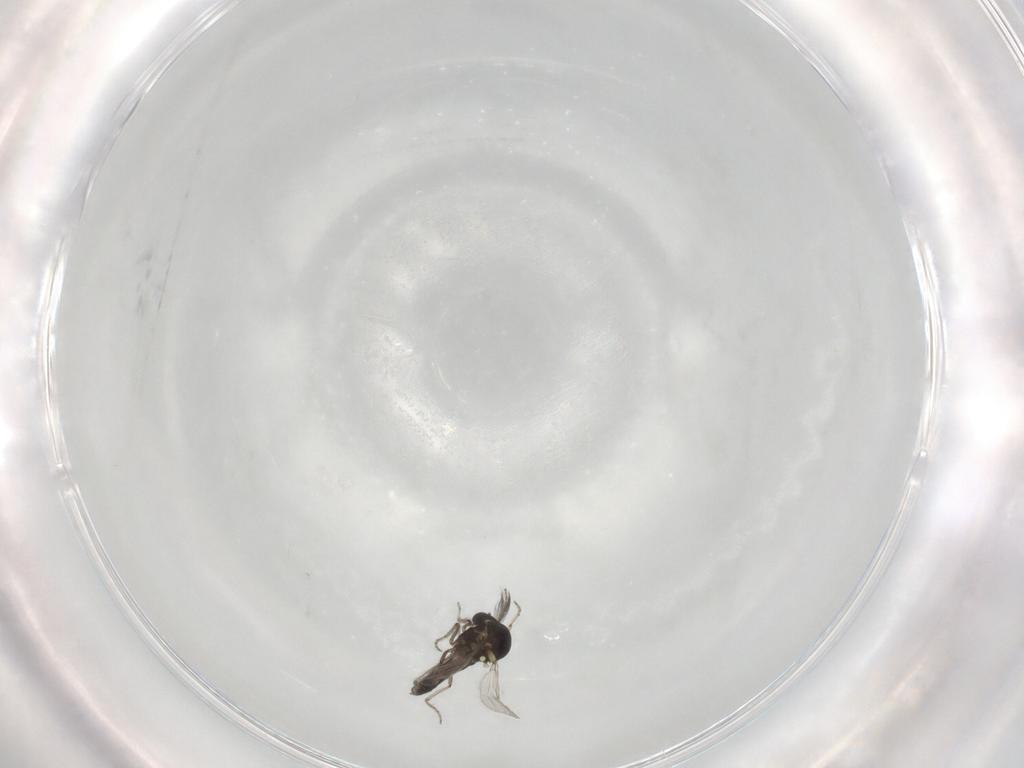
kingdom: Animalia
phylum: Arthropoda
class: Insecta
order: Diptera
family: Ceratopogonidae
